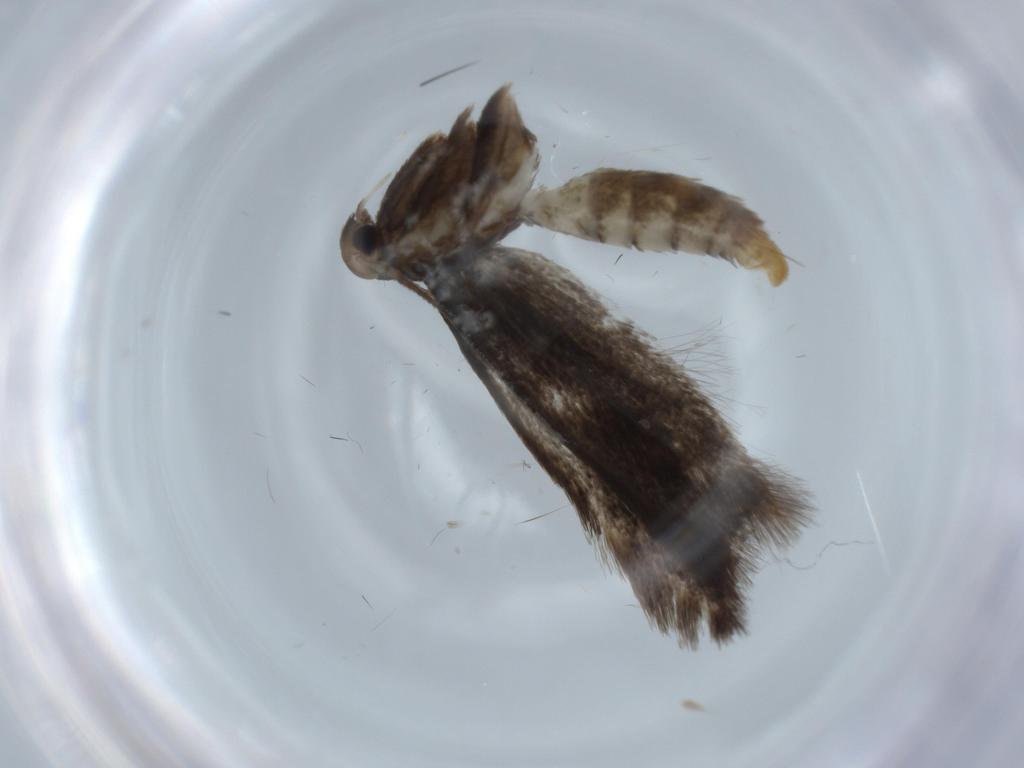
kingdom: Animalia
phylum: Arthropoda
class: Insecta
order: Lepidoptera
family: Elachistidae
